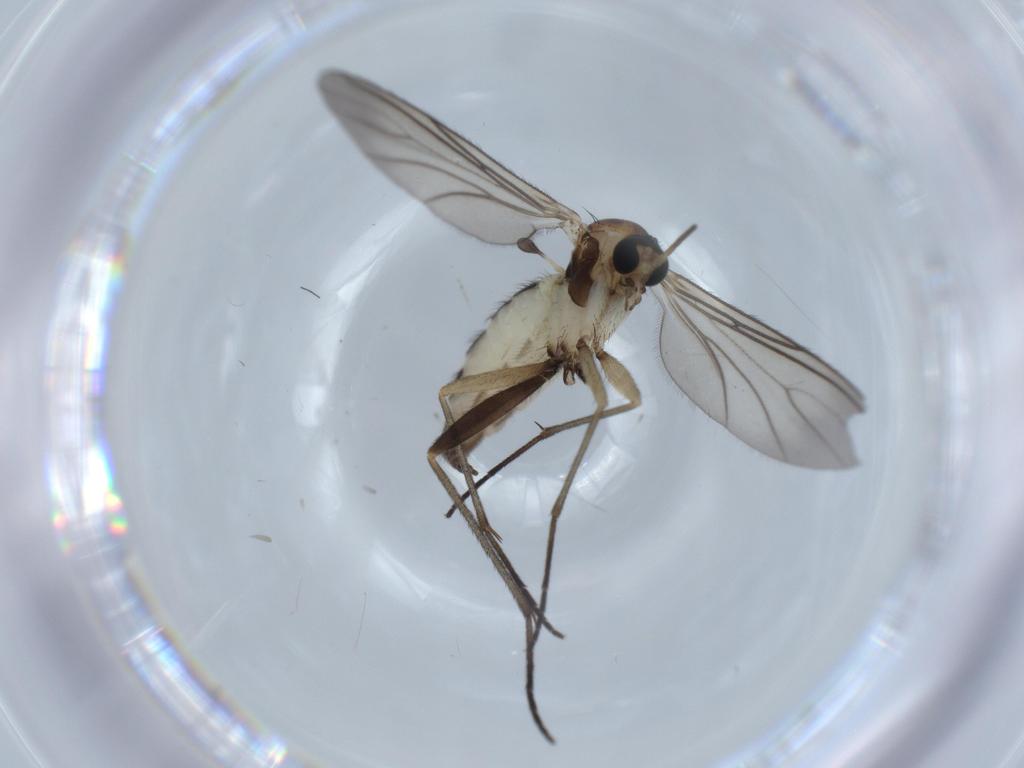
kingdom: Animalia
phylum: Arthropoda
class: Insecta
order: Diptera
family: Sciaridae
